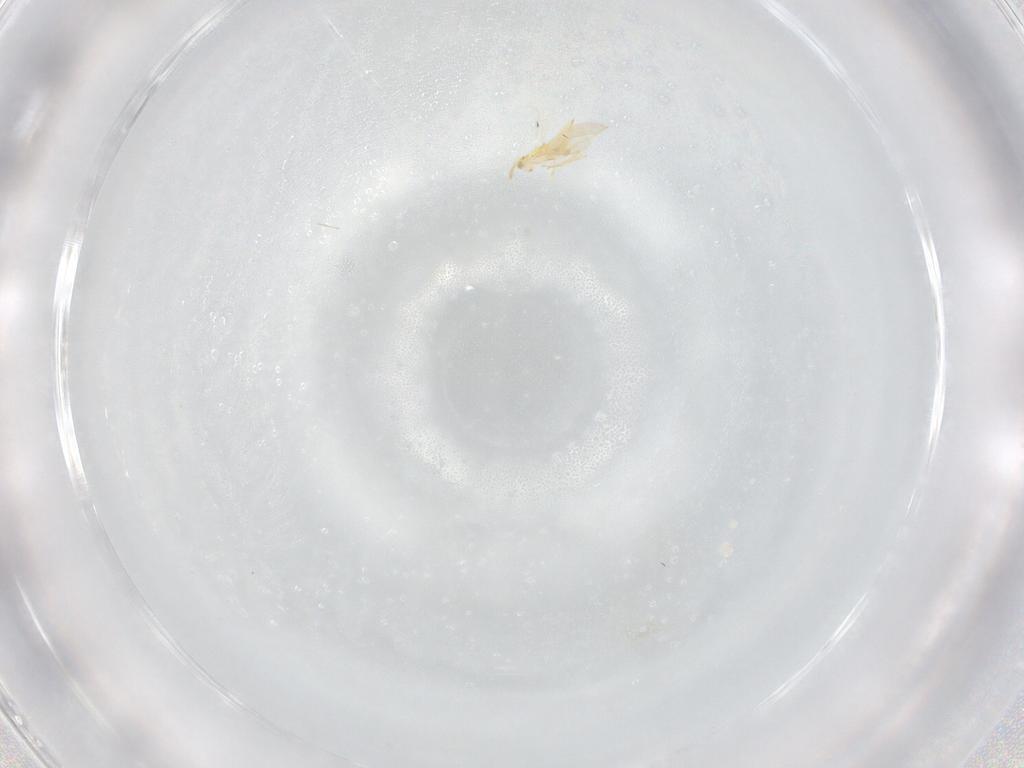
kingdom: Animalia
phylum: Arthropoda
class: Insecta
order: Hymenoptera
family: Aphelinidae
